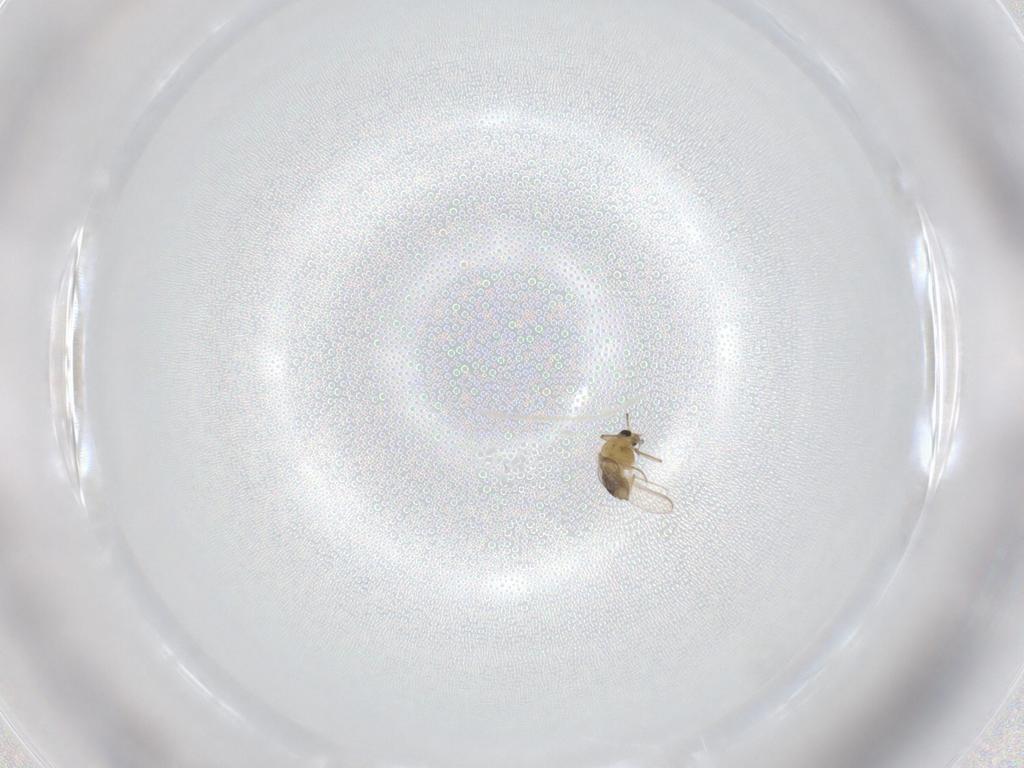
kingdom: Animalia
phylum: Arthropoda
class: Insecta
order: Diptera
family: Chironomidae
